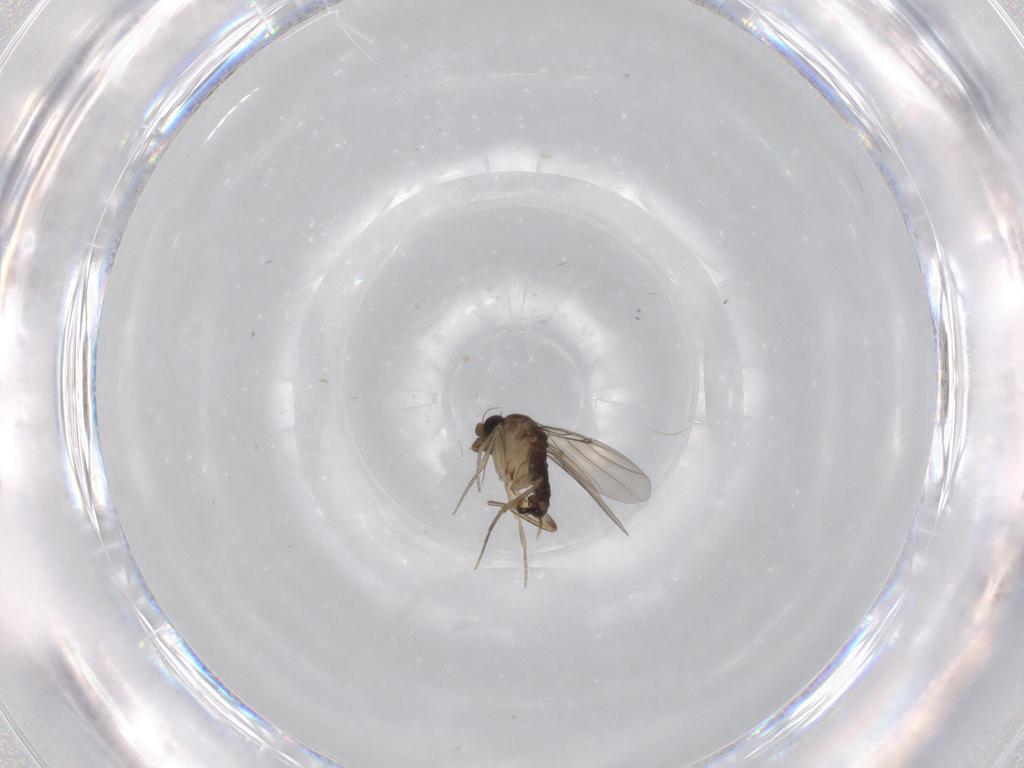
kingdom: Animalia
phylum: Arthropoda
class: Insecta
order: Diptera
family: Phoridae
